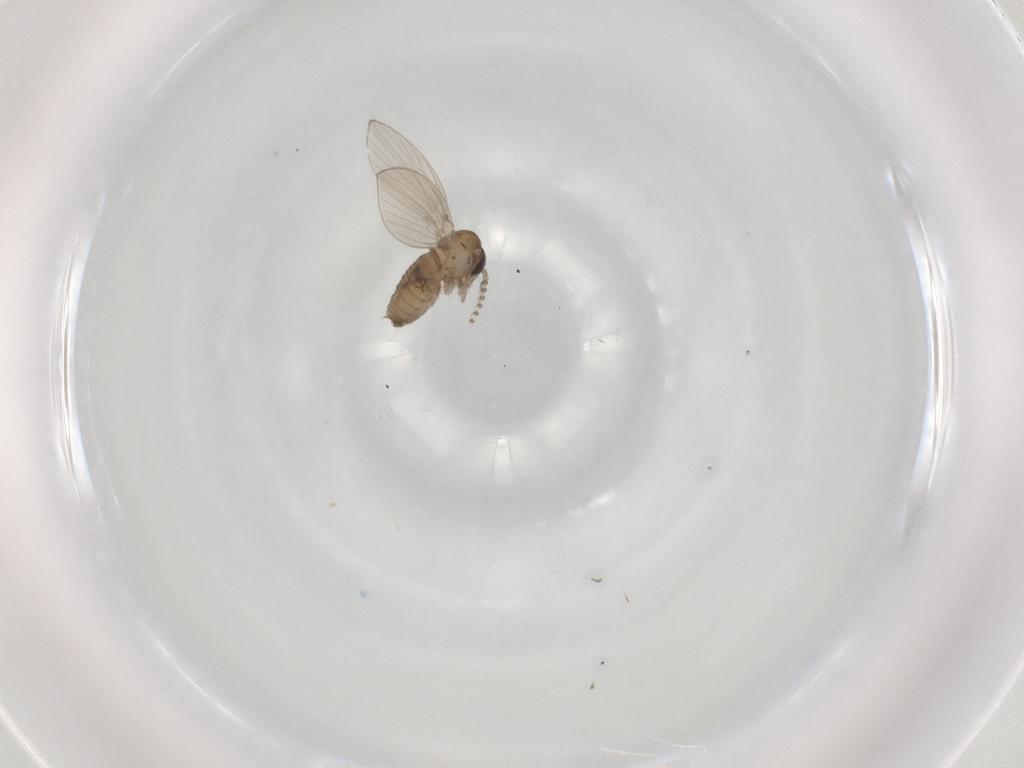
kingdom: Animalia
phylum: Arthropoda
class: Insecta
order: Diptera
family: Psychodidae
